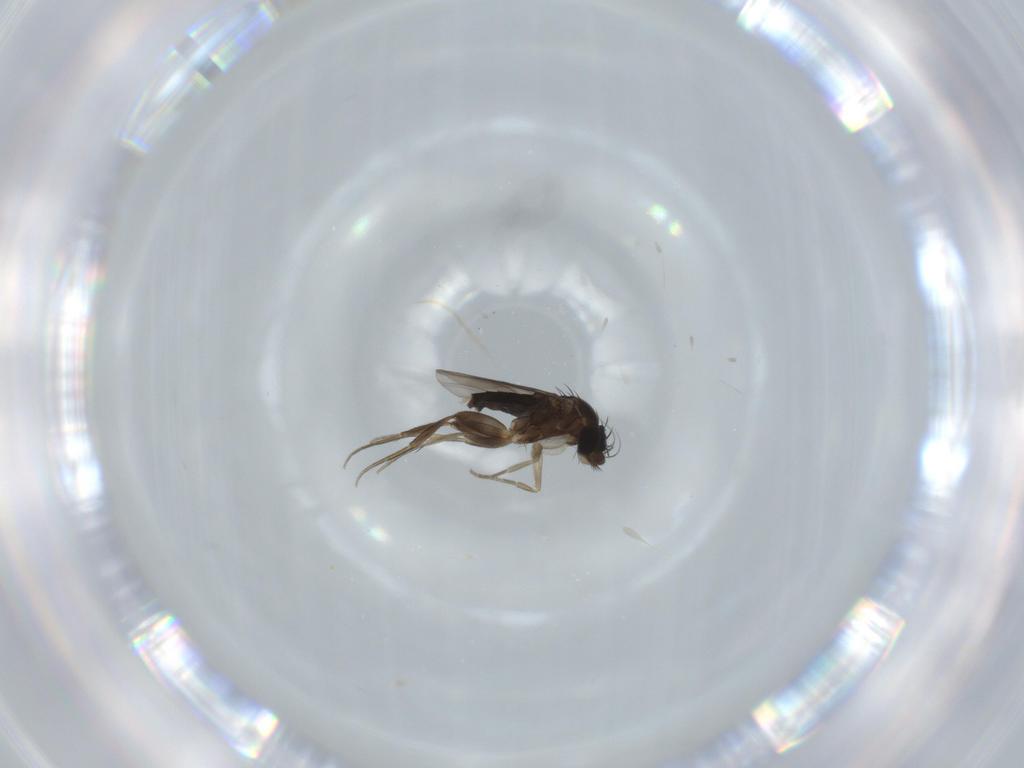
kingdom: Animalia
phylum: Arthropoda
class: Insecta
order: Diptera
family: Phoridae
